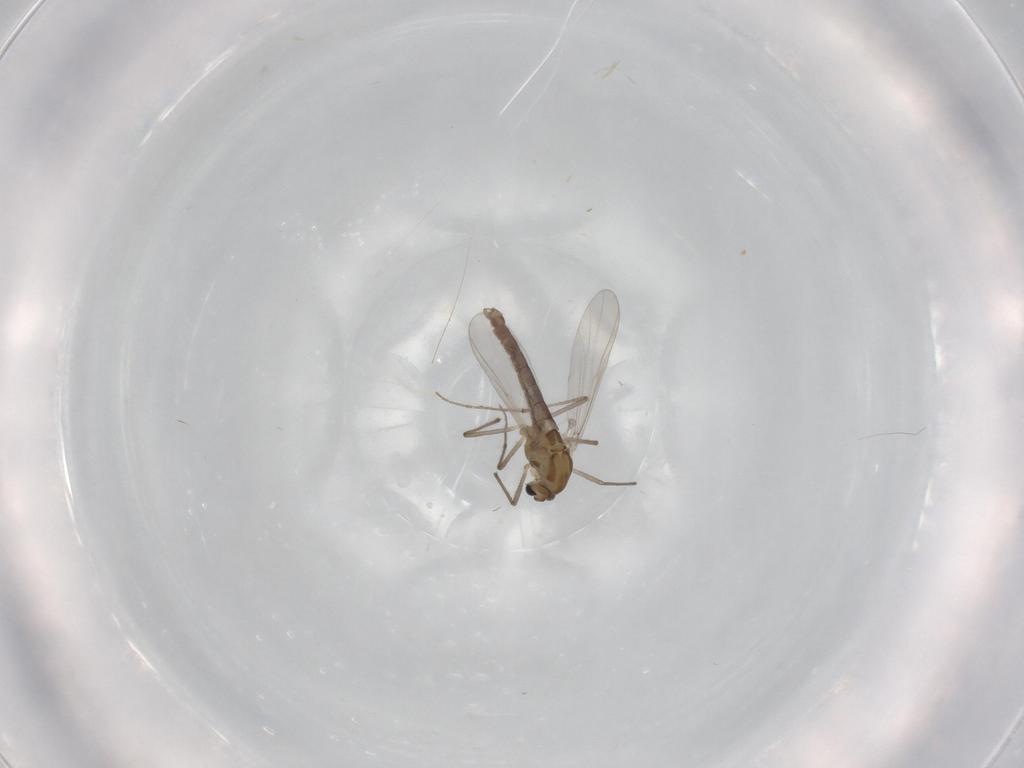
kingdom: Animalia
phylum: Arthropoda
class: Insecta
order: Diptera
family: Chironomidae
